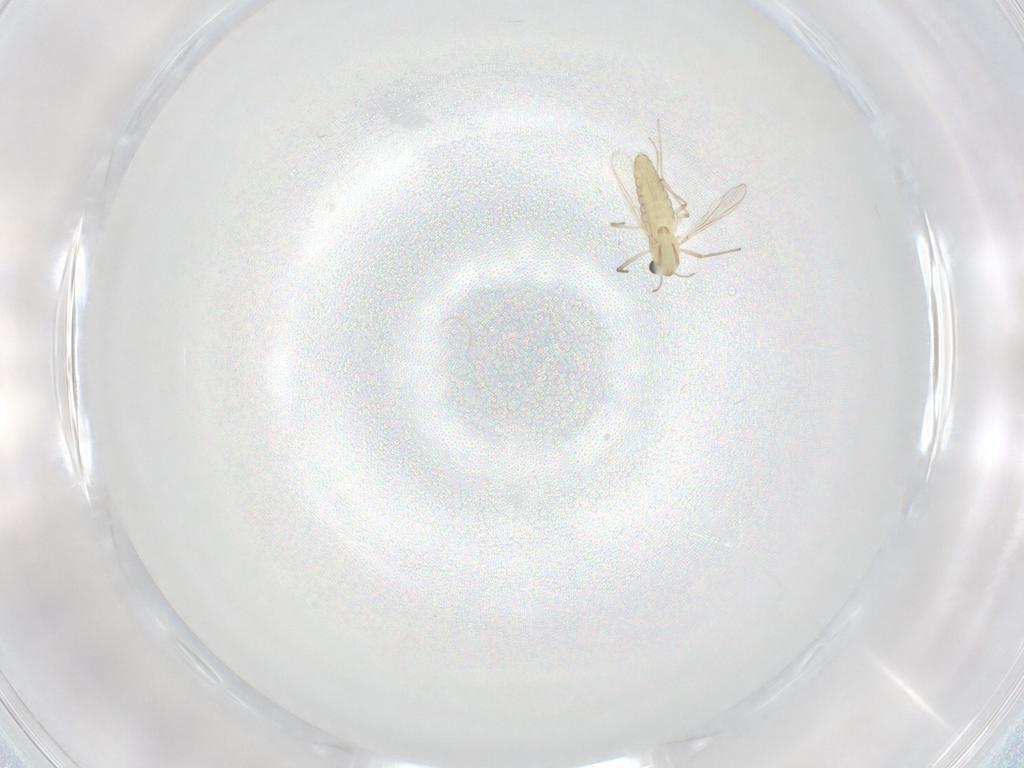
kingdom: Animalia
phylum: Arthropoda
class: Insecta
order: Diptera
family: Chironomidae
